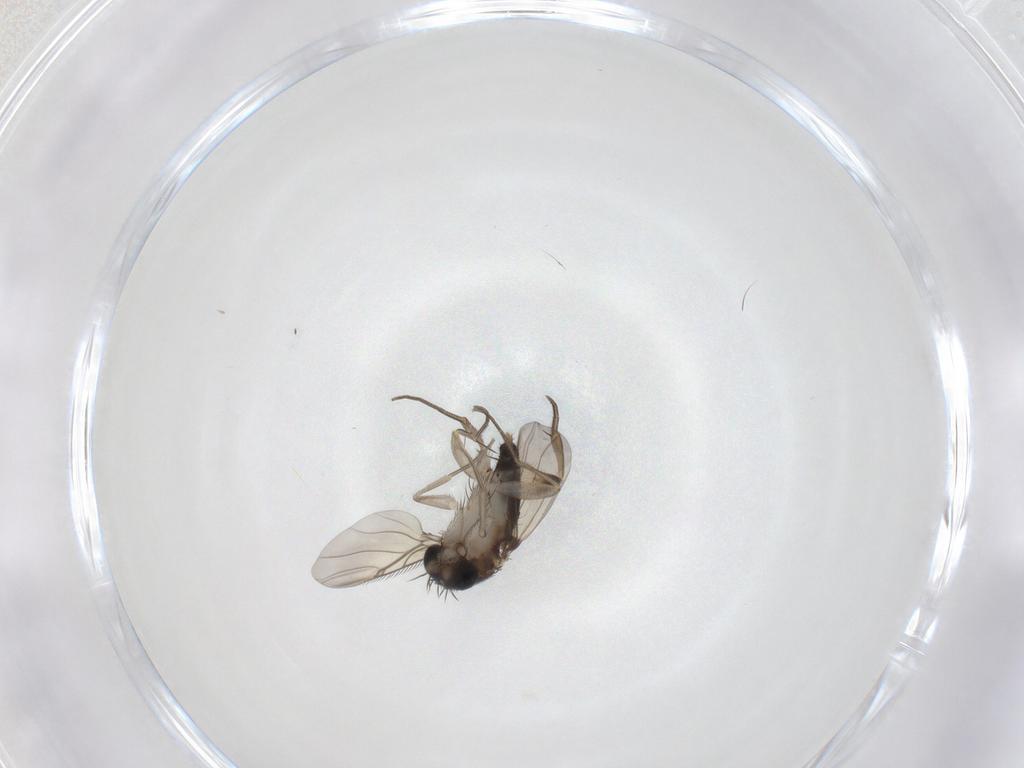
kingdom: Animalia
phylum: Arthropoda
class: Insecta
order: Diptera
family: Phoridae
